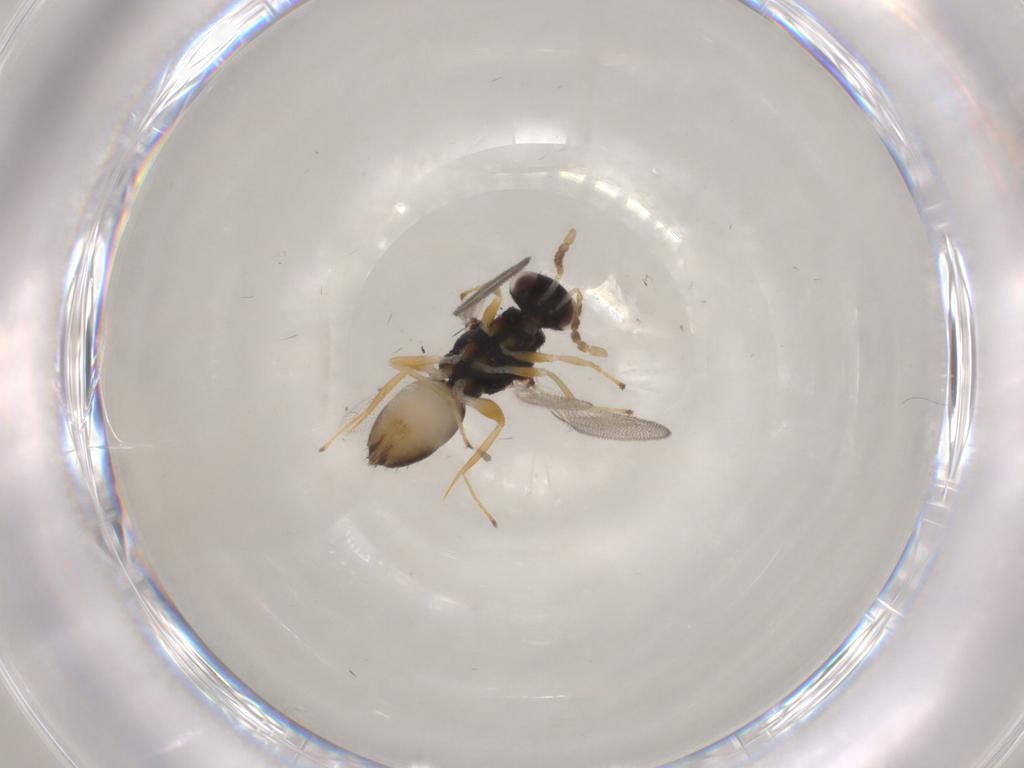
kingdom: Animalia
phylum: Arthropoda
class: Insecta
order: Hymenoptera
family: Eulophidae
